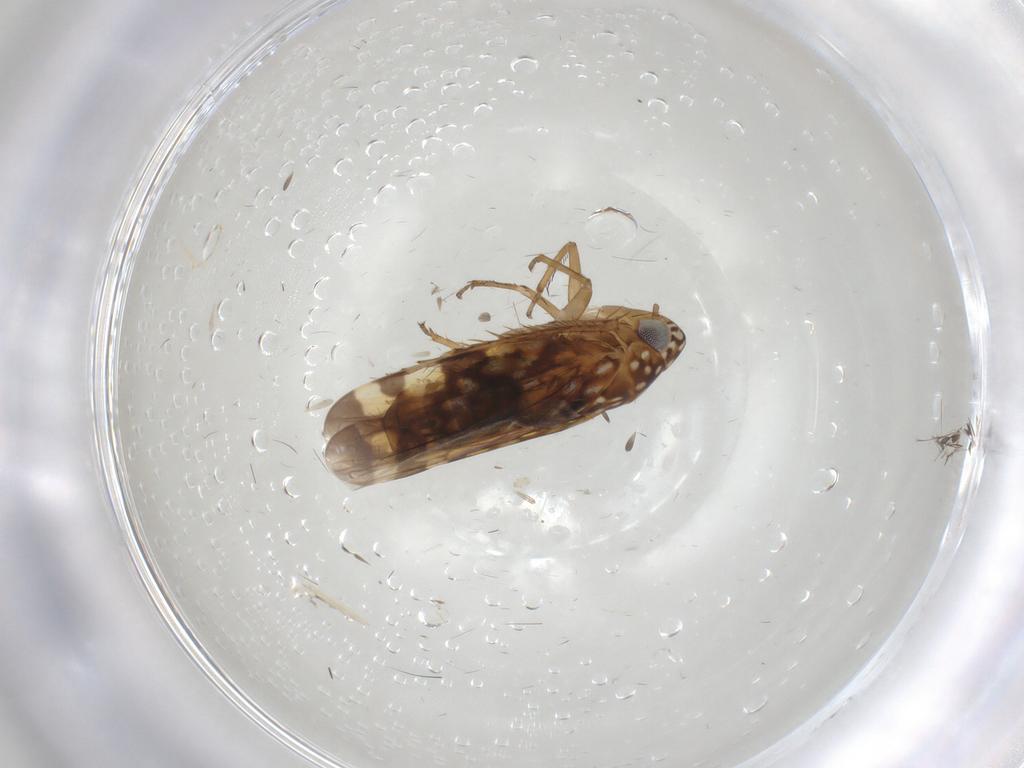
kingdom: Animalia
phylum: Arthropoda
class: Insecta
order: Hemiptera
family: Cicadellidae
